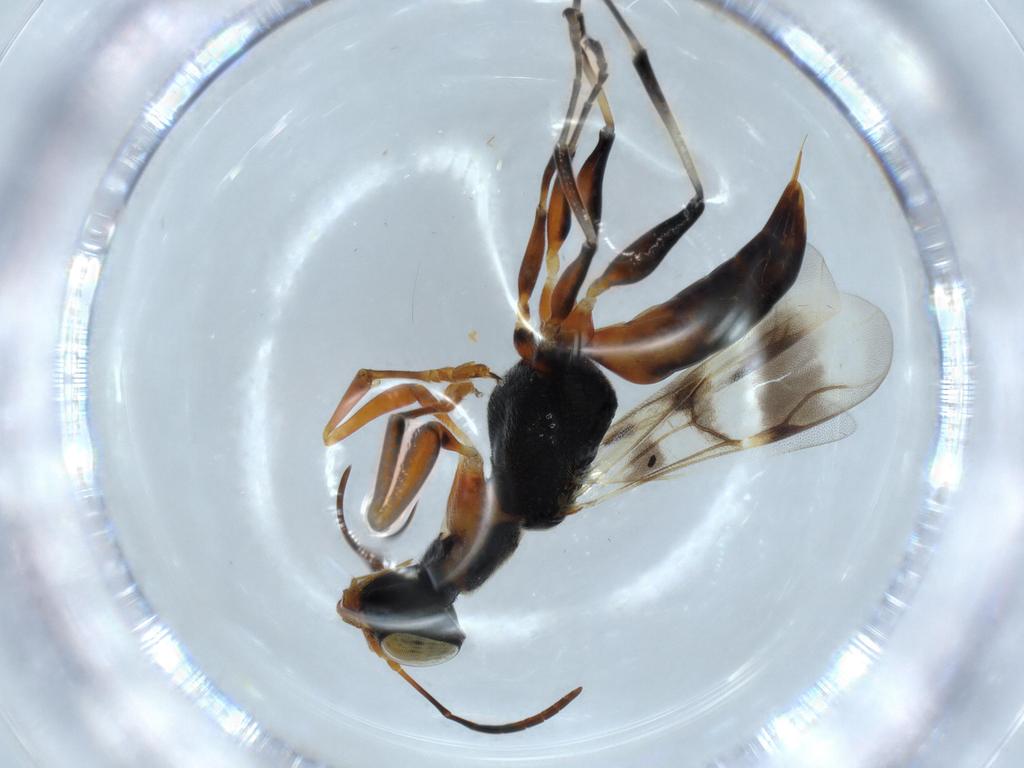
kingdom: Animalia
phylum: Arthropoda
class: Insecta
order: Hymenoptera
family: Dryinidae
